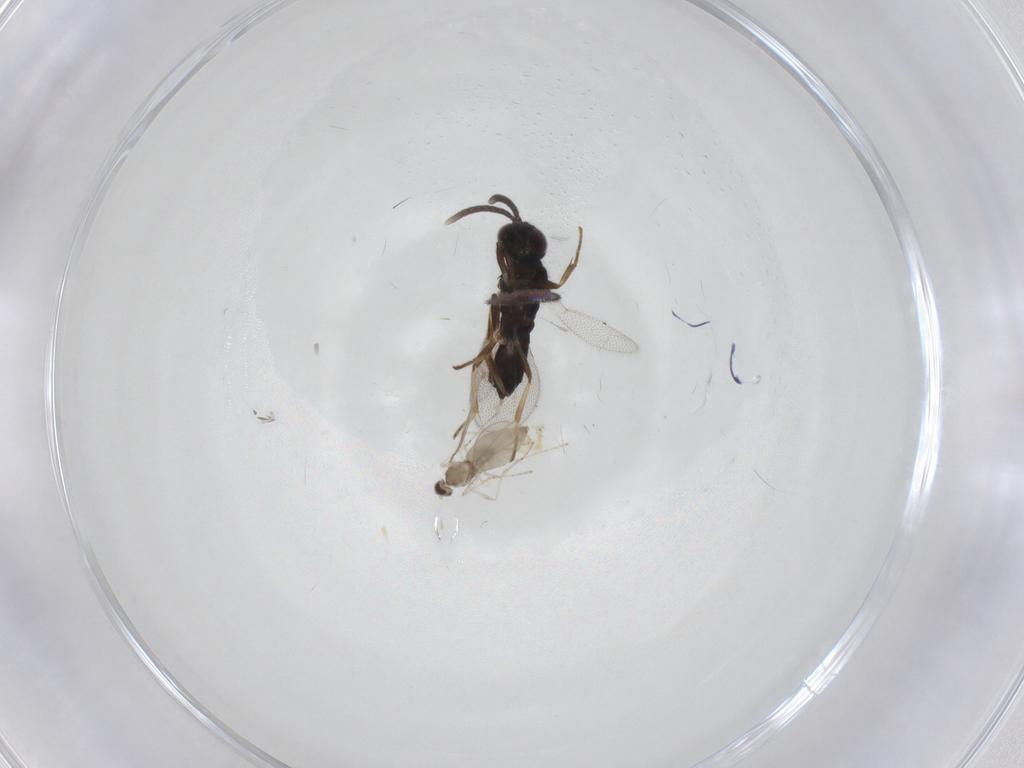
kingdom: Animalia
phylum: Arthropoda
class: Insecta
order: Diptera
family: Cecidomyiidae
